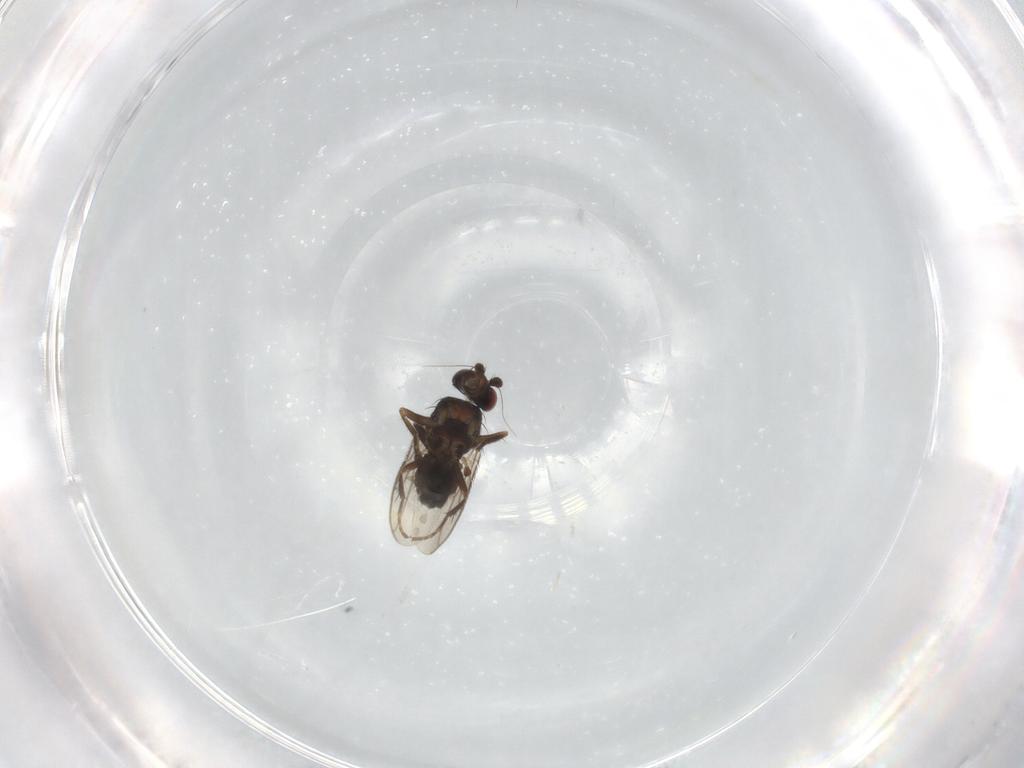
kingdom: Animalia
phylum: Arthropoda
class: Insecta
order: Diptera
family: Sphaeroceridae
